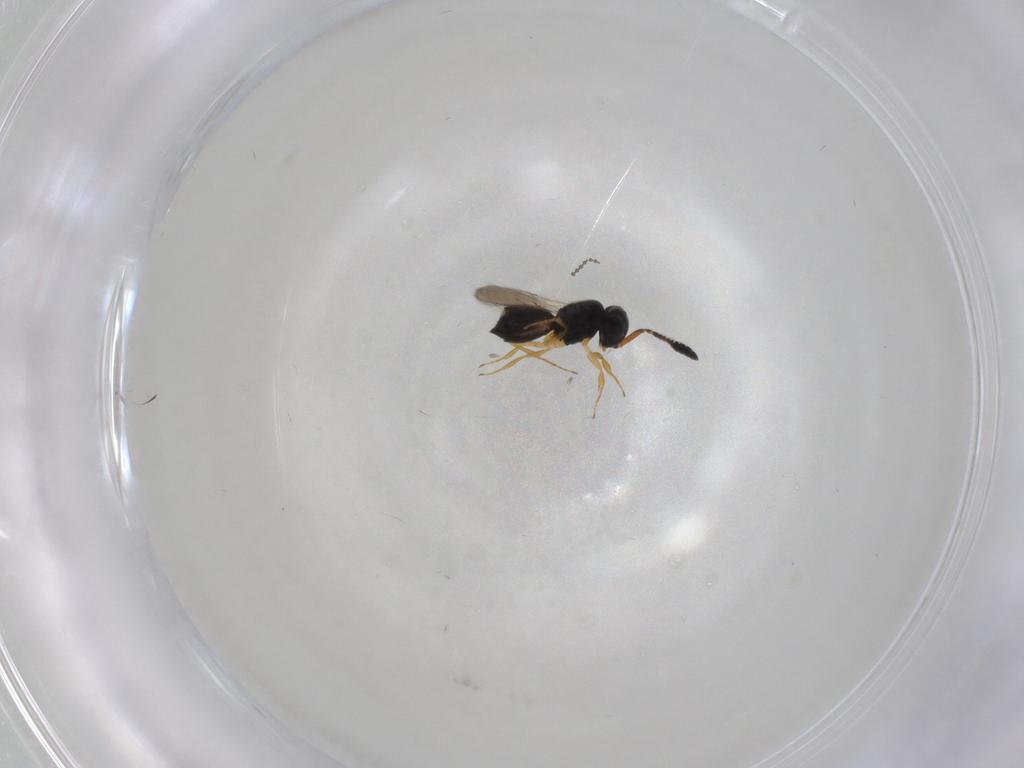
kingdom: Animalia
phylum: Arthropoda
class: Insecta
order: Hymenoptera
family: Scelionidae
